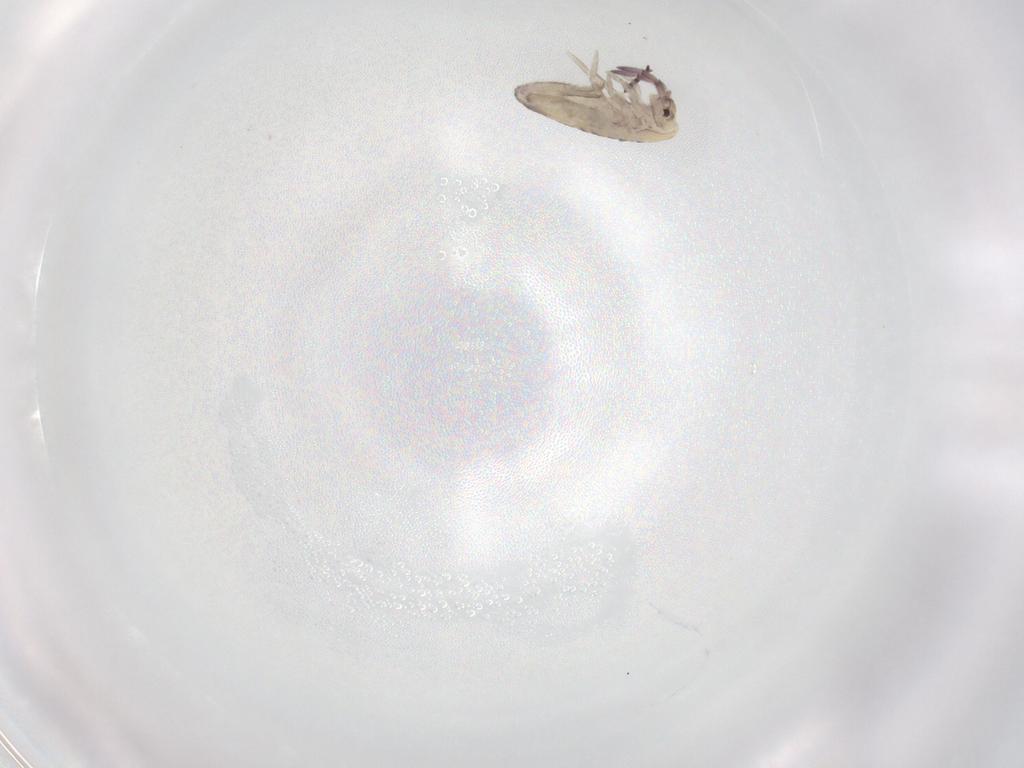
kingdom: Animalia
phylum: Arthropoda
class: Collembola
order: Entomobryomorpha
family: Entomobryidae
